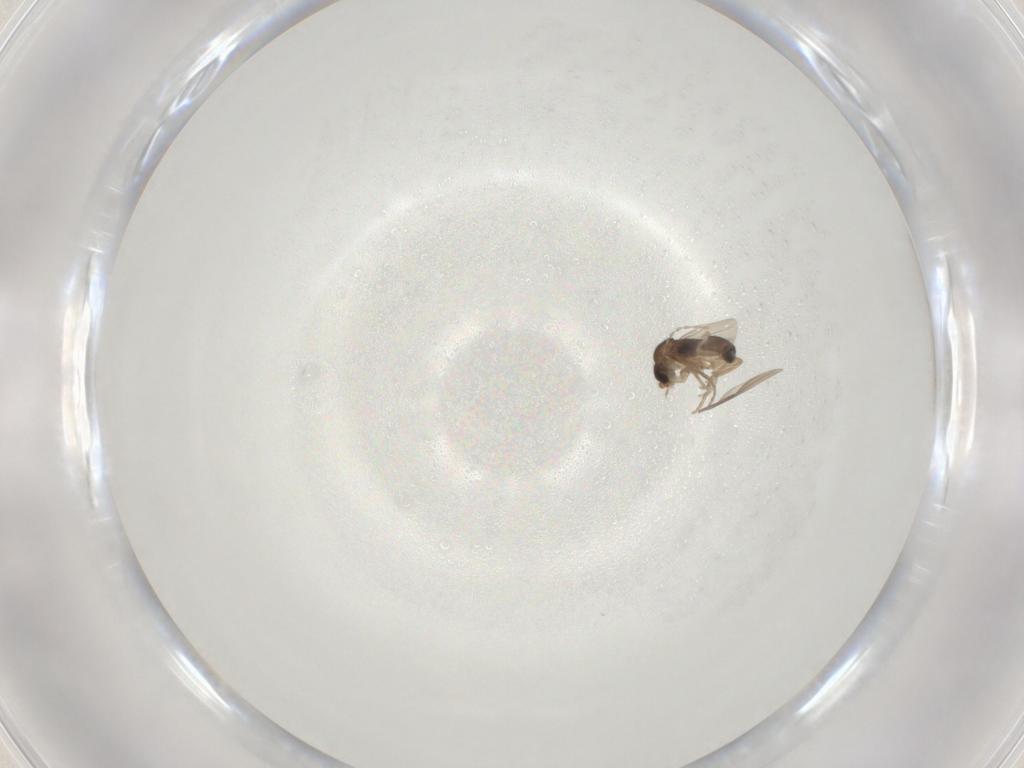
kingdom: Animalia
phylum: Arthropoda
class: Insecta
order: Diptera
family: Phoridae
